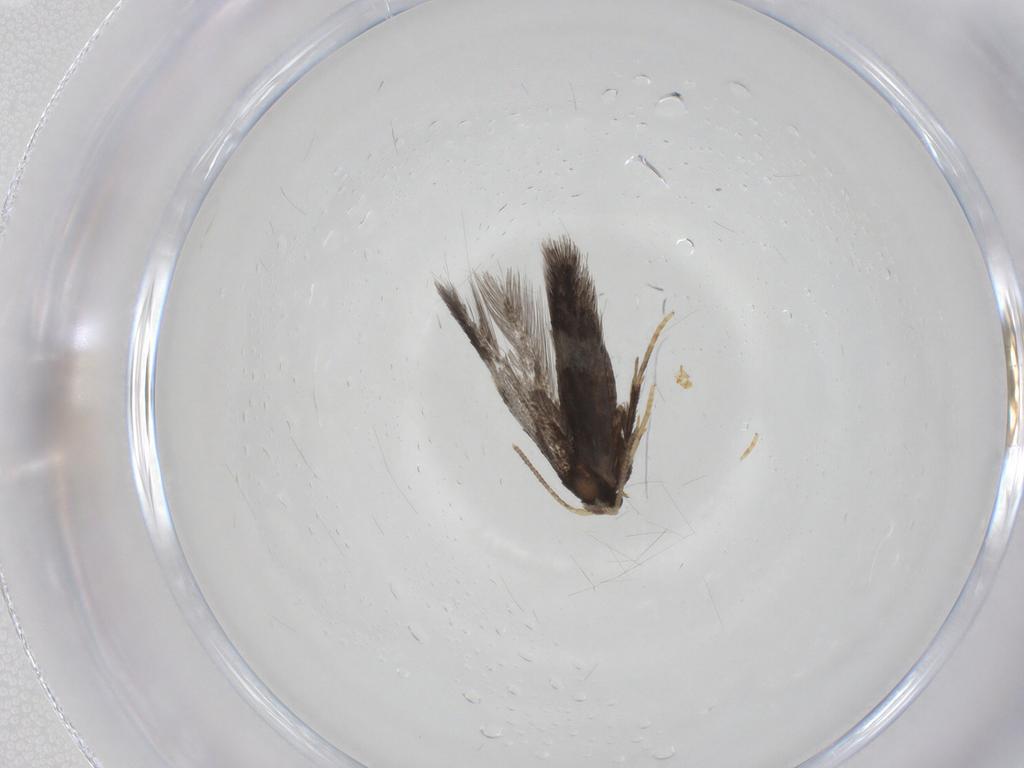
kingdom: Animalia
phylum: Arthropoda
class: Insecta
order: Lepidoptera
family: Nepticulidae
